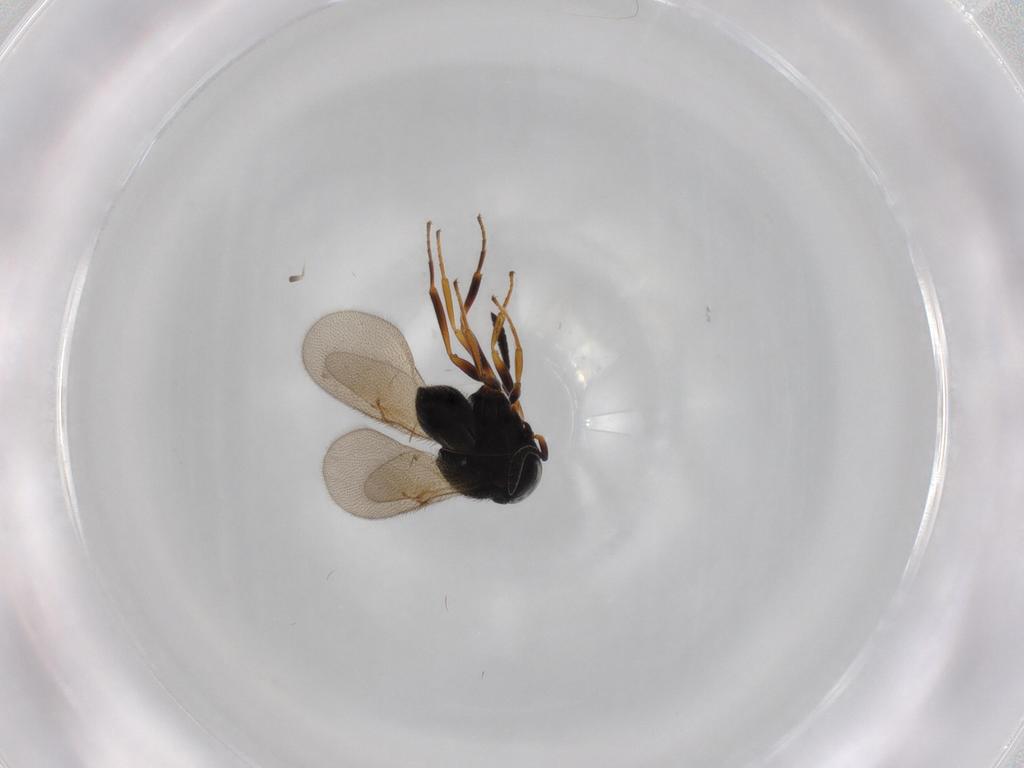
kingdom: Animalia
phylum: Arthropoda
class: Insecta
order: Hymenoptera
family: Scelionidae
